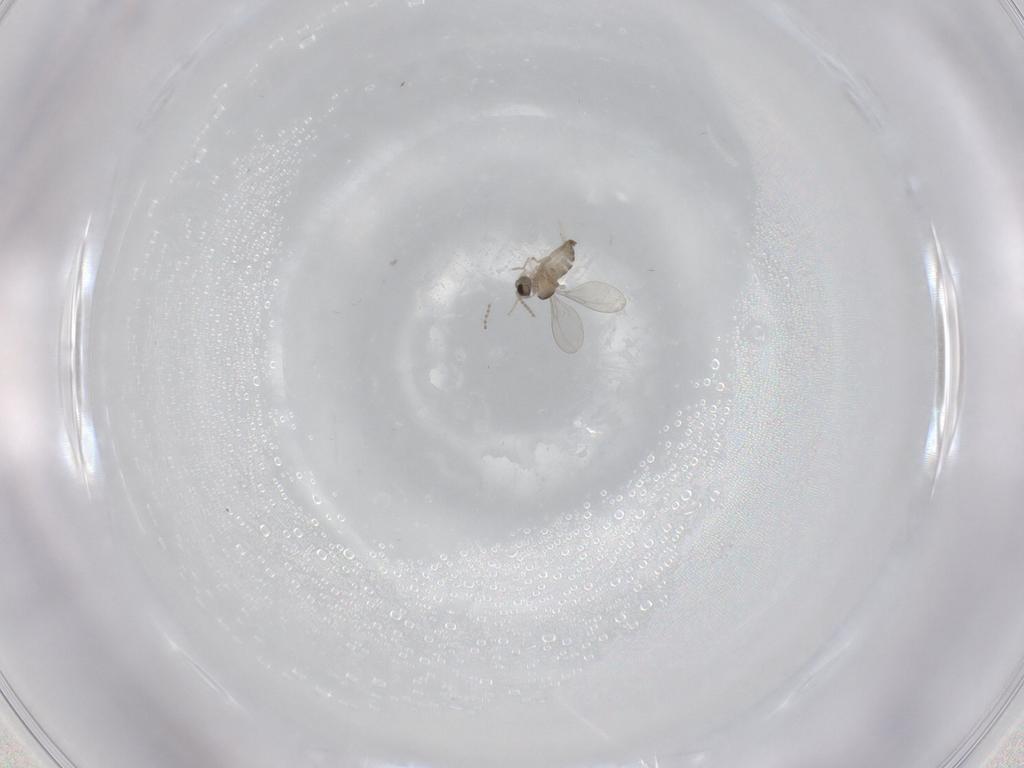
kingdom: Animalia
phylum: Arthropoda
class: Insecta
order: Diptera
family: Cecidomyiidae
